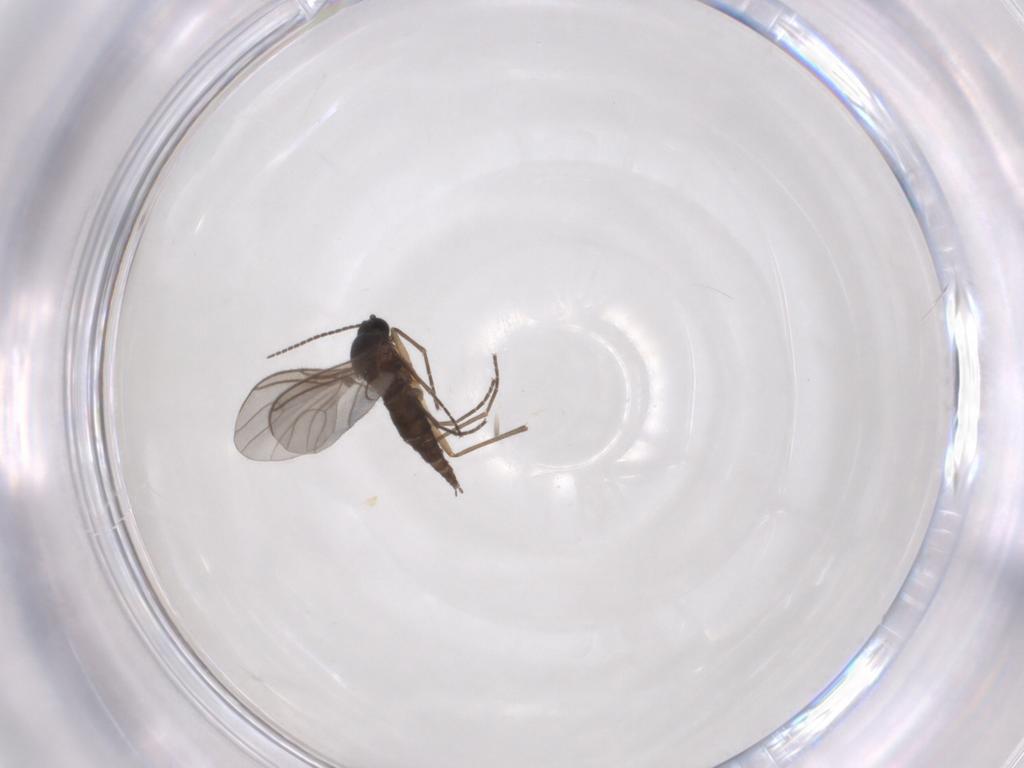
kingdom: Animalia
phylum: Arthropoda
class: Insecta
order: Diptera
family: Sciaridae
